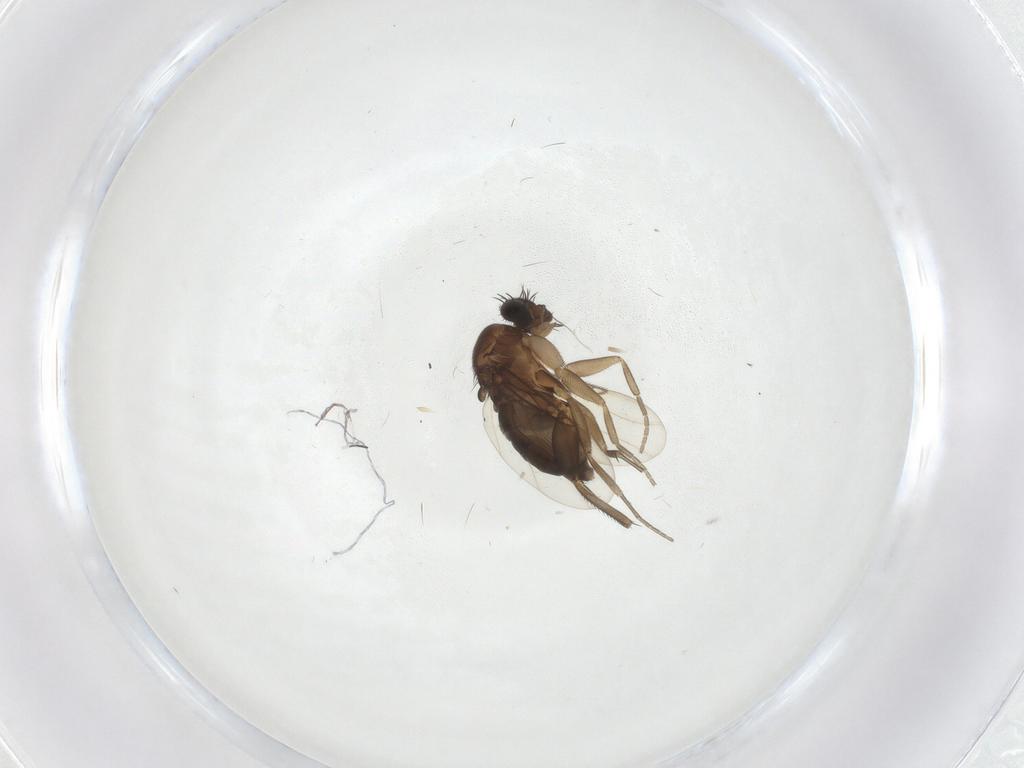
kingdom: Animalia
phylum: Arthropoda
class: Insecta
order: Diptera
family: Phoridae
